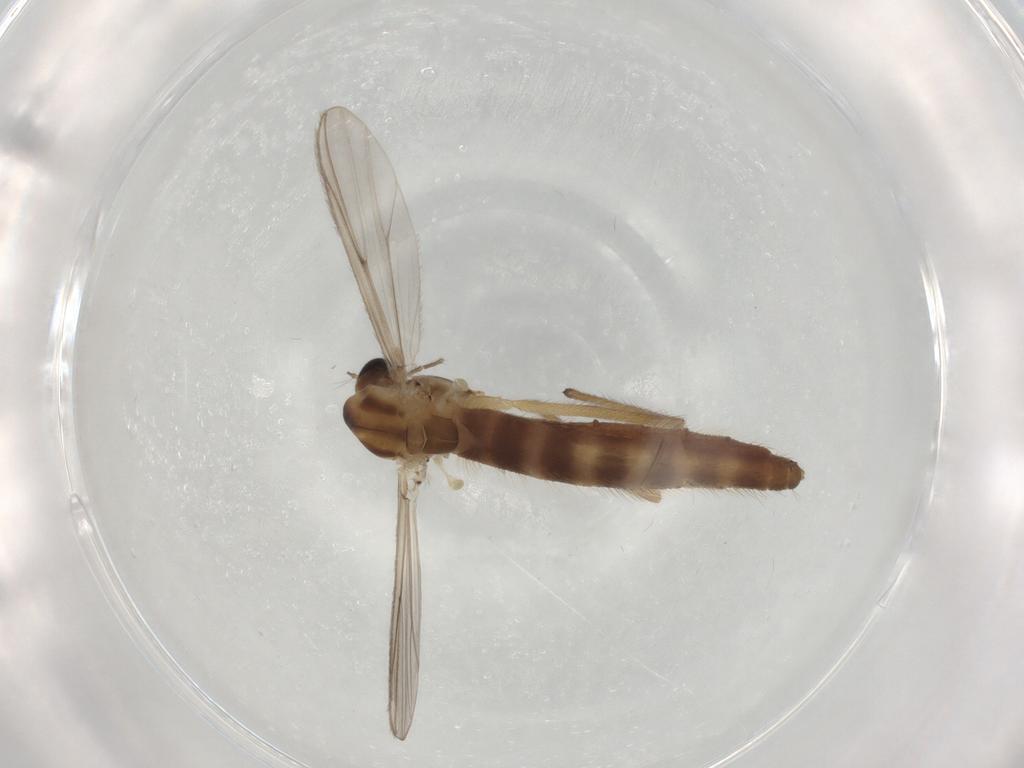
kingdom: Animalia
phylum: Arthropoda
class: Insecta
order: Diptera
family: Chironomidae
